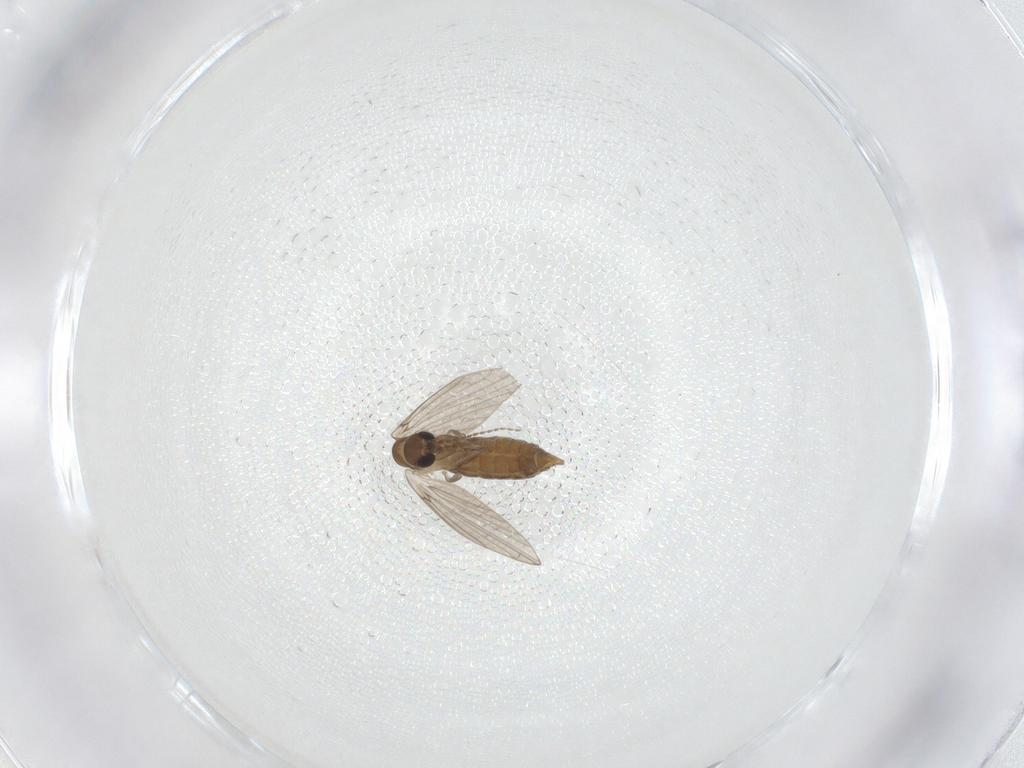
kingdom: Animalia
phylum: Arthropoda
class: Insecta
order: Diptera
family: Psychodidae
